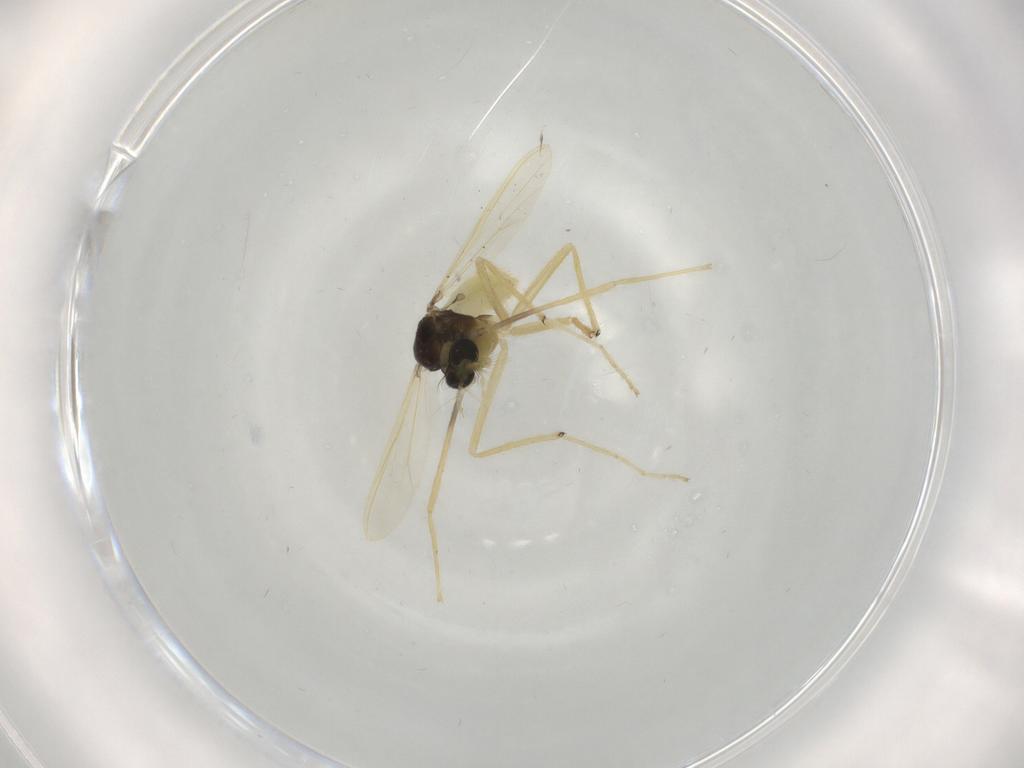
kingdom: Animalia
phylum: Arthropoda
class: Insecta
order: Diptera
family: Chironomidae
